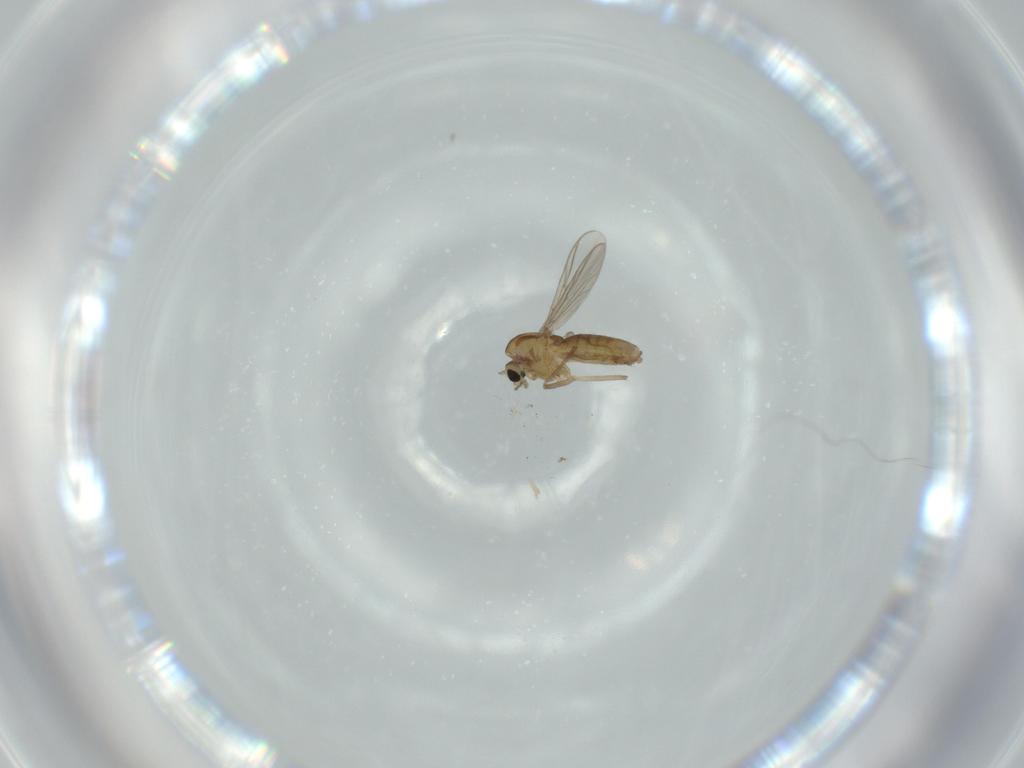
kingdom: Animalia
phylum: Arthropoda
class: Insecta
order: Diptera
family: Chironomidae
